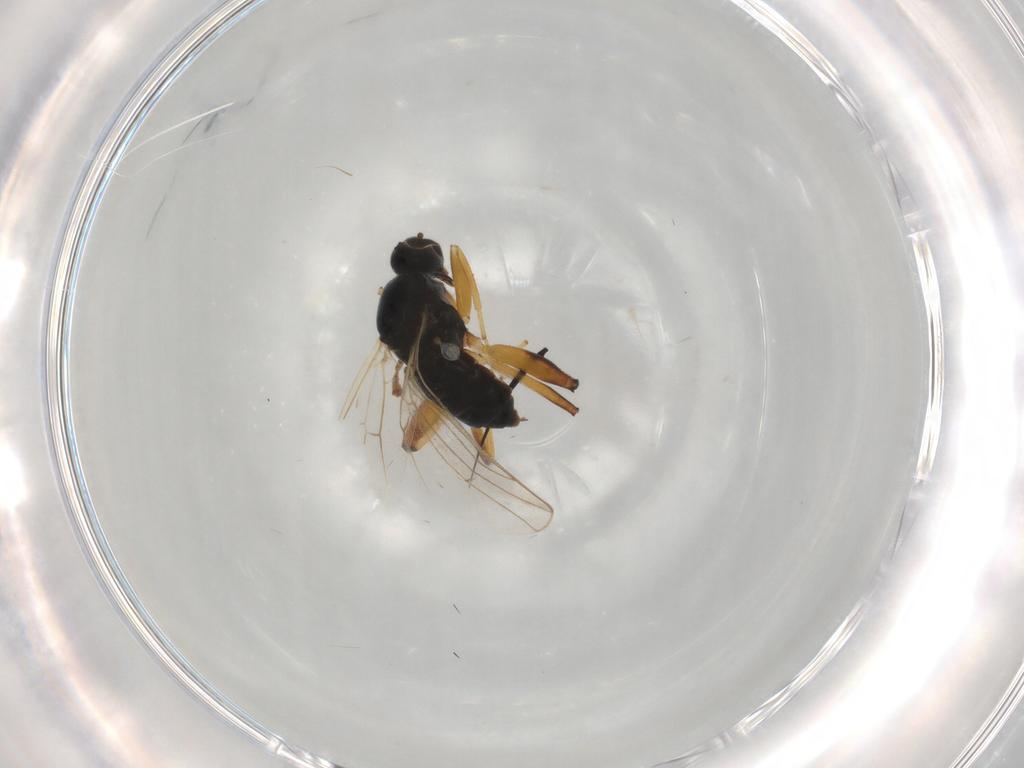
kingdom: Animalia
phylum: Arthropoda
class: Insecta
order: Diptera
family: Hybotidae
